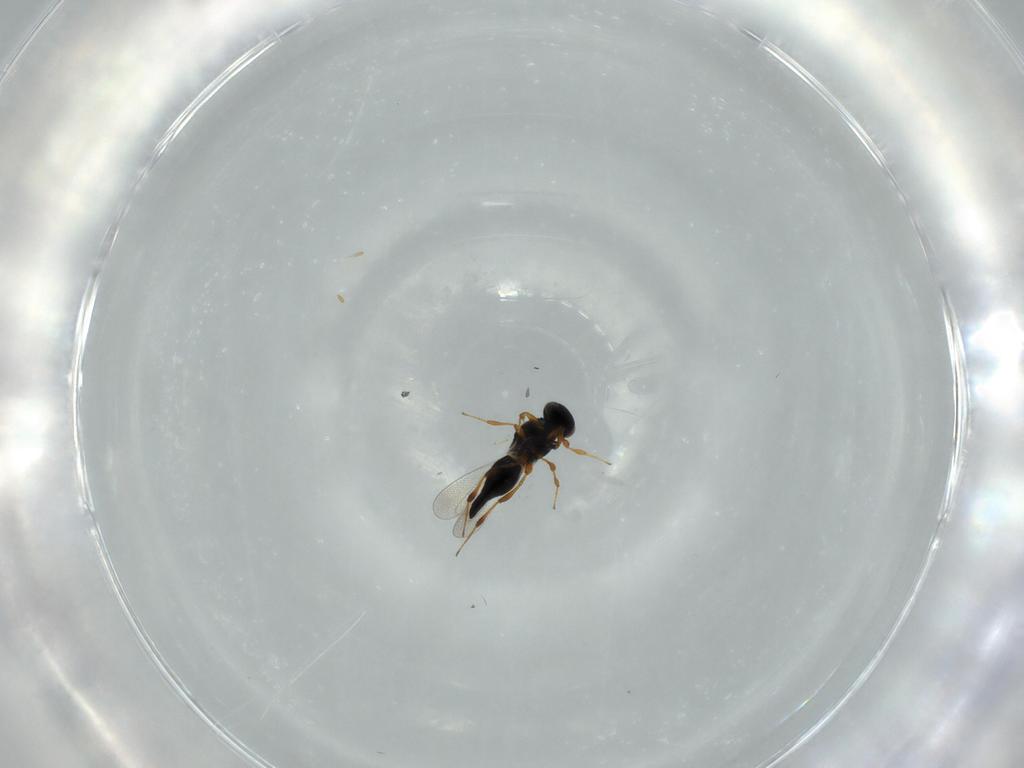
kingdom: Animalia
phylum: Arthropoda
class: Insecta
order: Hymenoptera
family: Platygastridae
